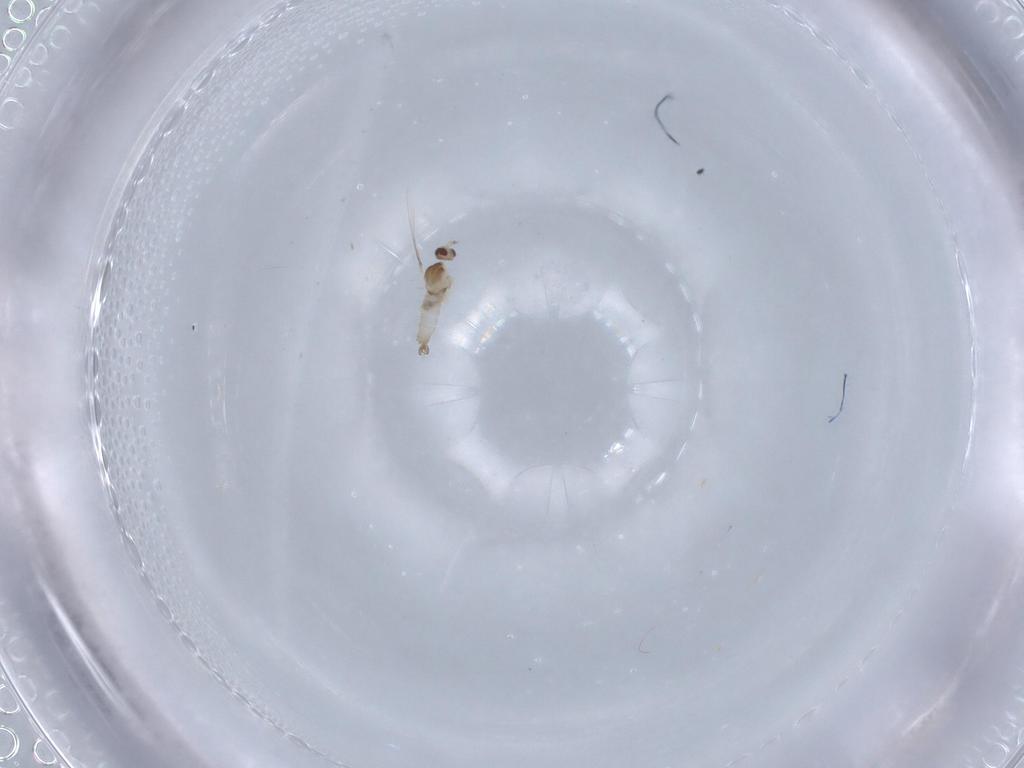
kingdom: Animalia
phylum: Arthropoda
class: Insecta
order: Diptera
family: Cecidomyiidae
